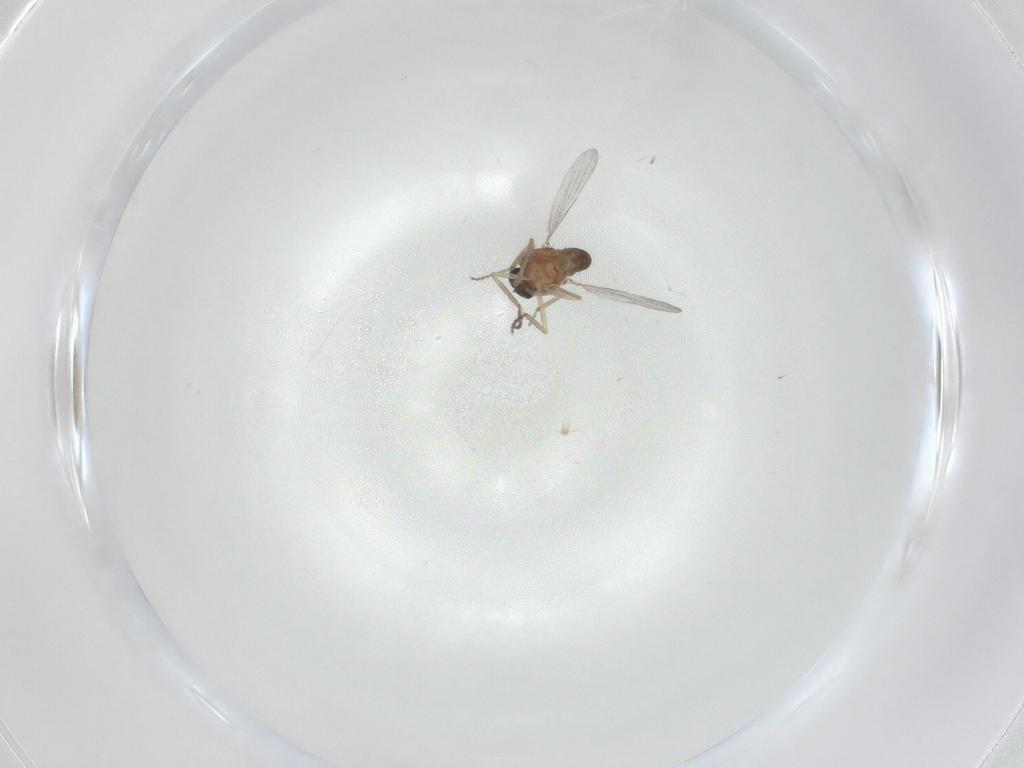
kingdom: Animalia
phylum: Arthropoda
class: Insecta
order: Diptera
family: Ceratopogonidae
